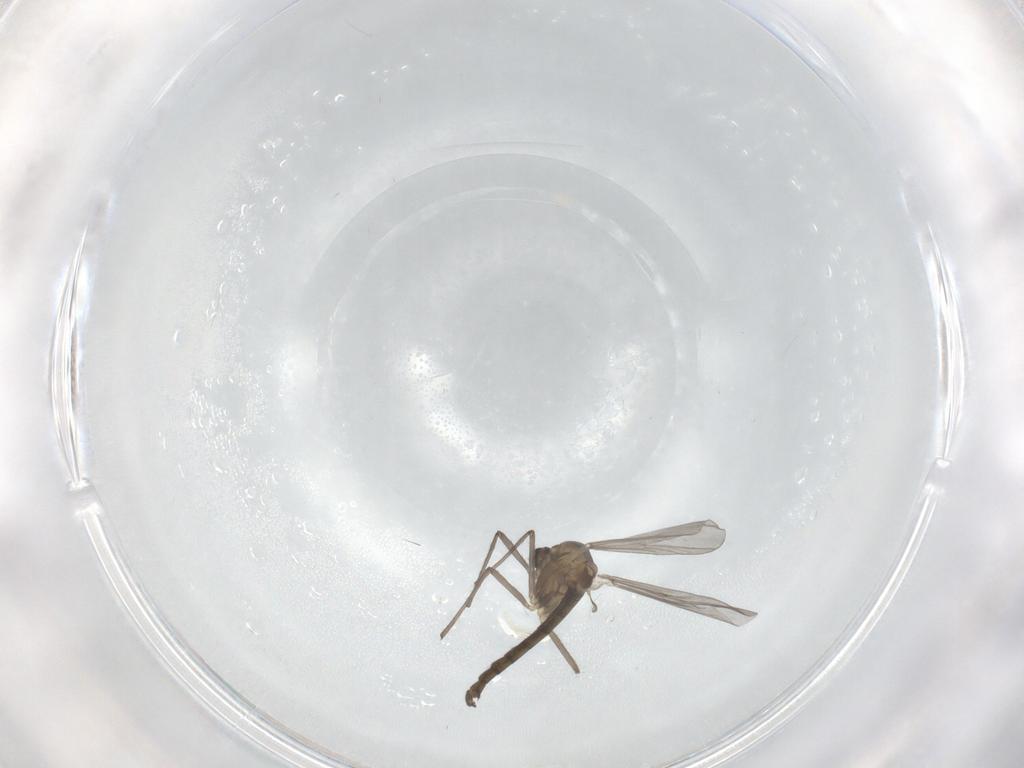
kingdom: Animalia
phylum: Arthropoda
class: Insecta
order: Diptera
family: Chironomidae
